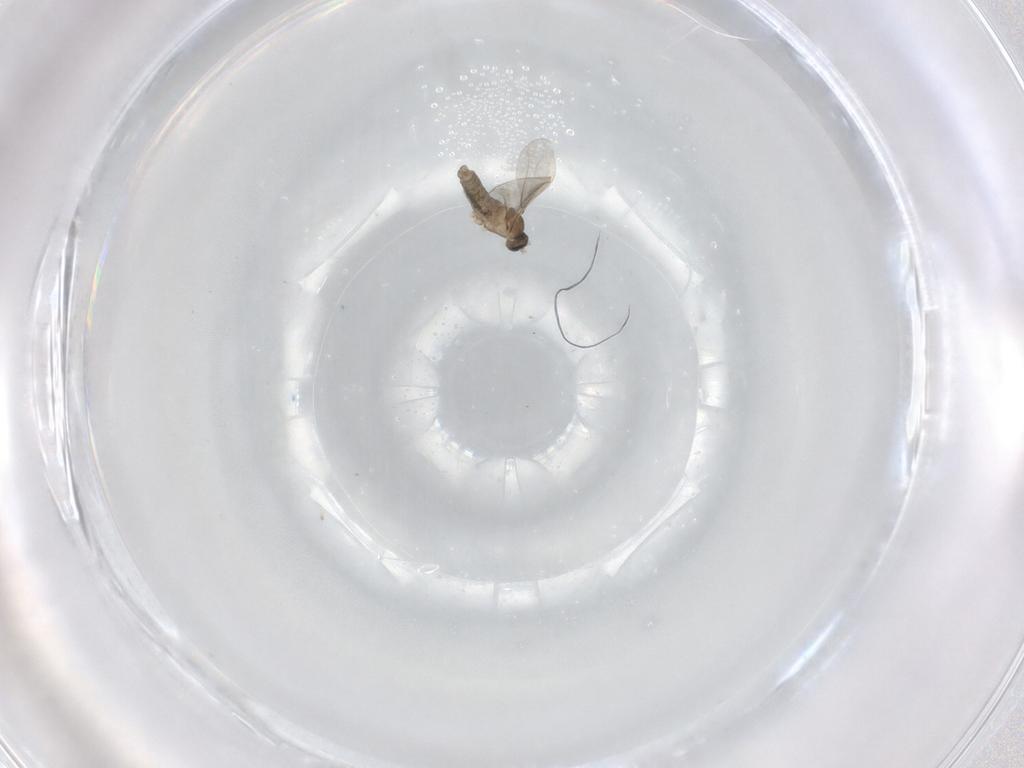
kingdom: Animalia
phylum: Arthropoda
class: Insecta
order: Diptera
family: Cecidomyiidae
